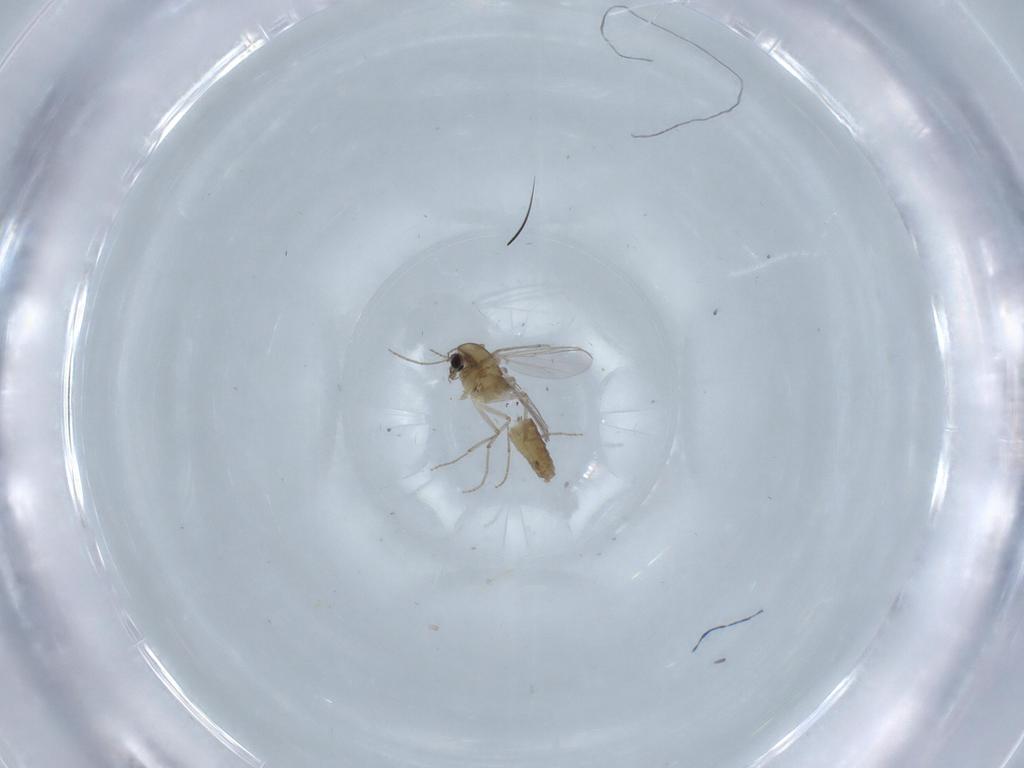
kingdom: Animalia
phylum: Arthropoda
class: Insecta
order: Diptera
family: Chironomidae
